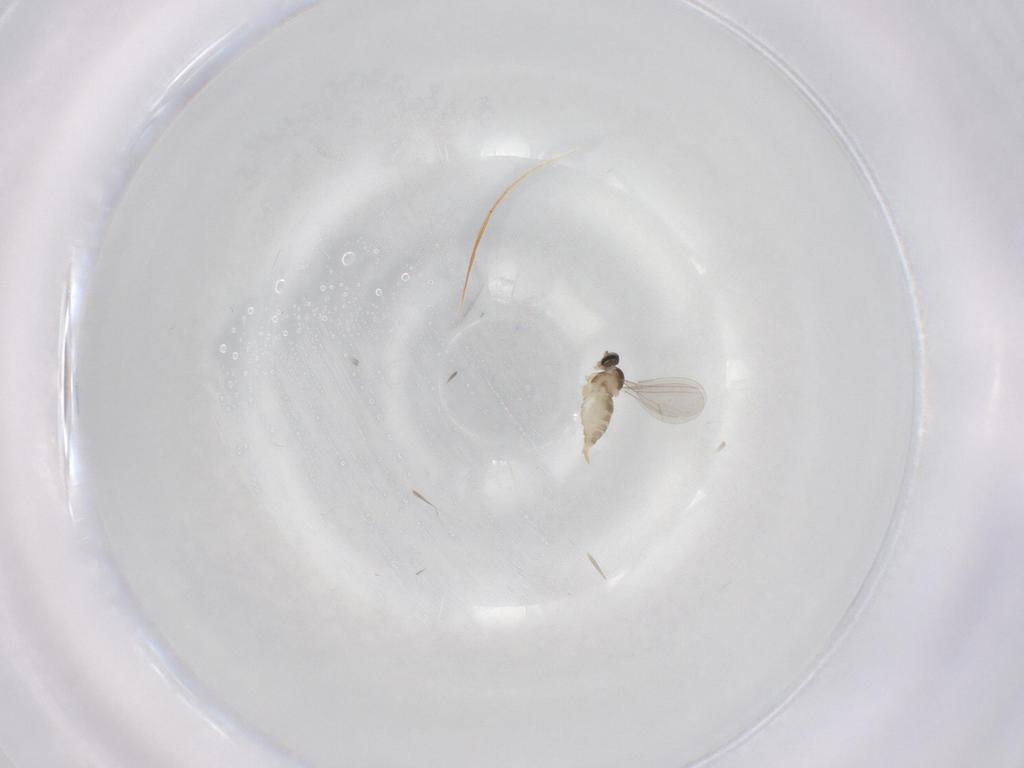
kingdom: Animalia
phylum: Arthropoda
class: Insecta
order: Diptera
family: Cecidomyiidae
